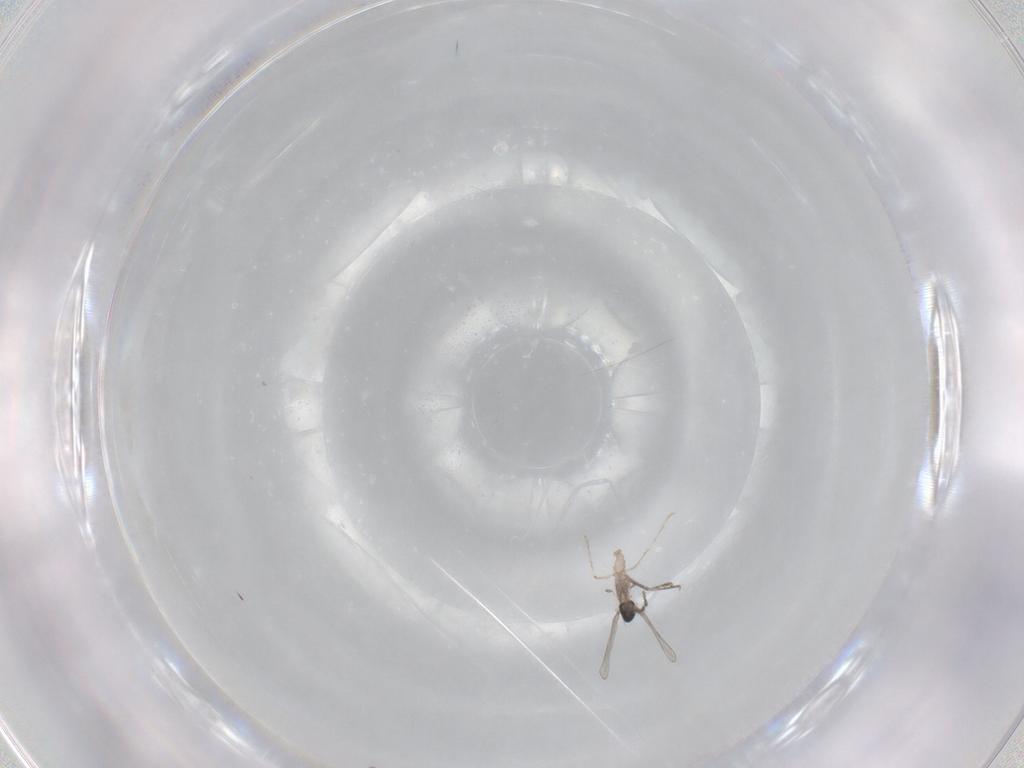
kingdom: Animalia
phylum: Arthropoda
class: Insecta
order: Diptera
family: Cecidomyiidae
